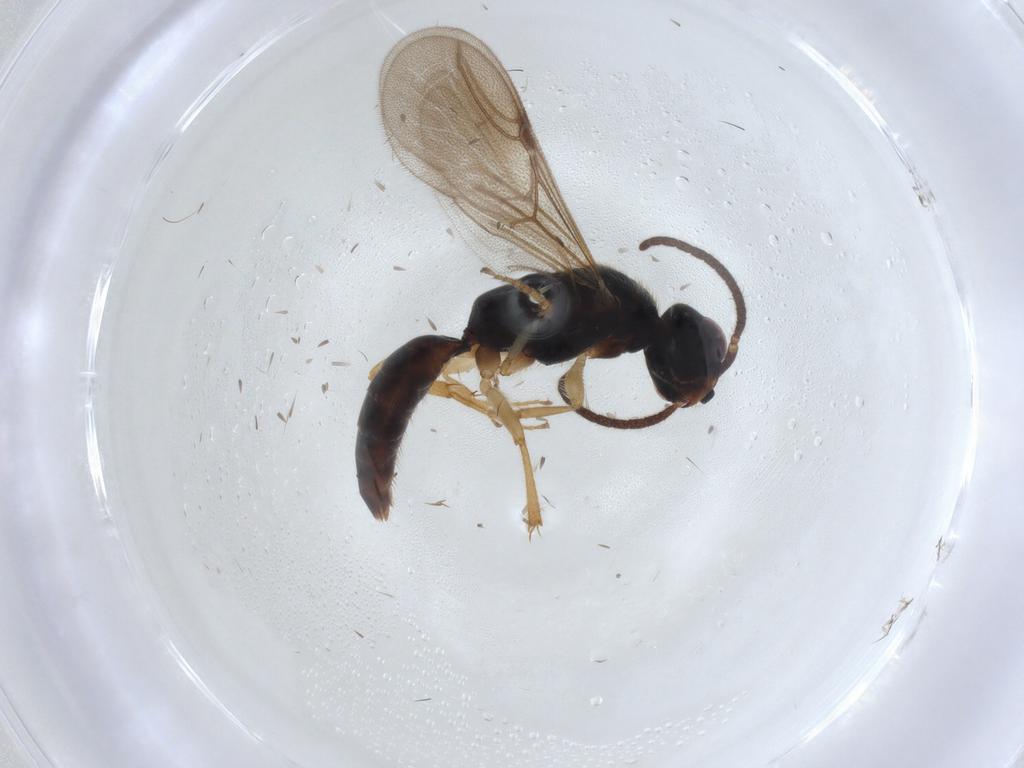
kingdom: Animalia
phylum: Arthropoda
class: Insecta
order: Hymenoptera
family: Bethylidae
